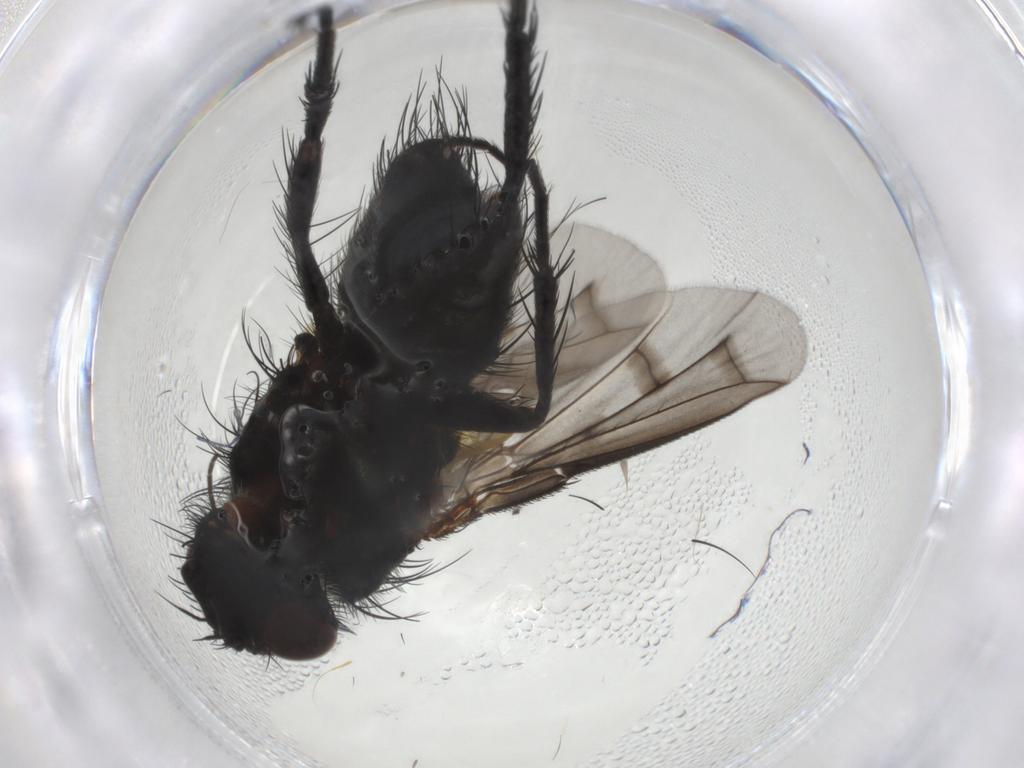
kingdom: Animalia
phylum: Arthropoda
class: Insecta
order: Diptera
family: Tachinidae
